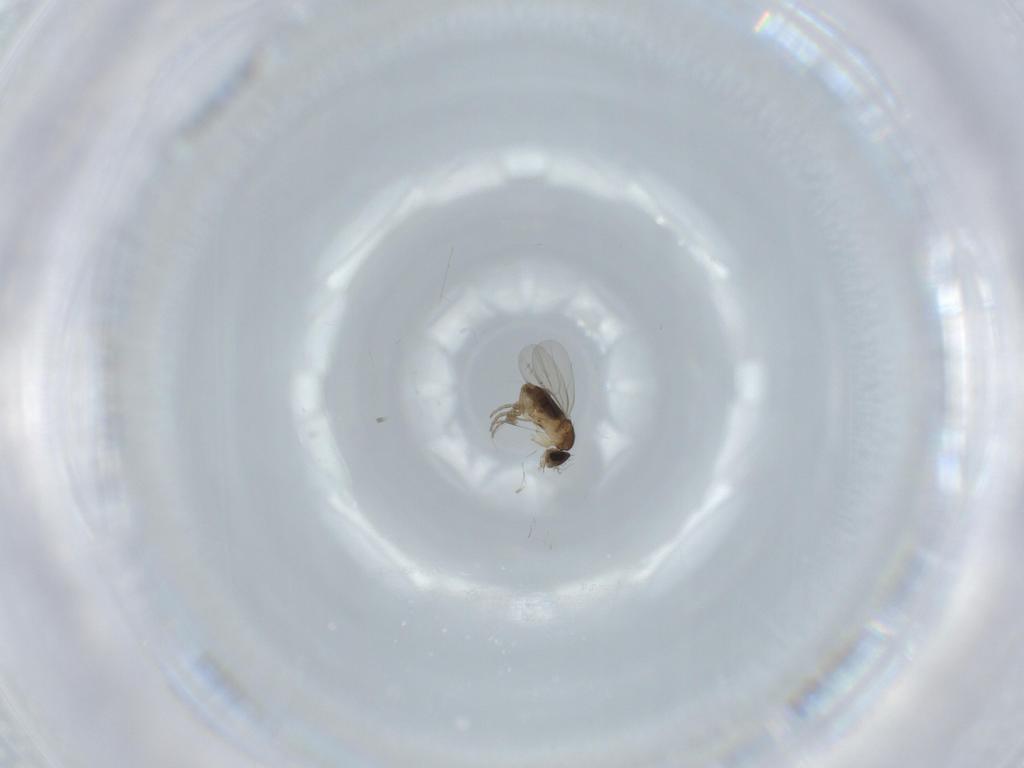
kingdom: Animalia
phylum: Arthropoda
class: Insecta
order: Diptera
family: Phoridae
